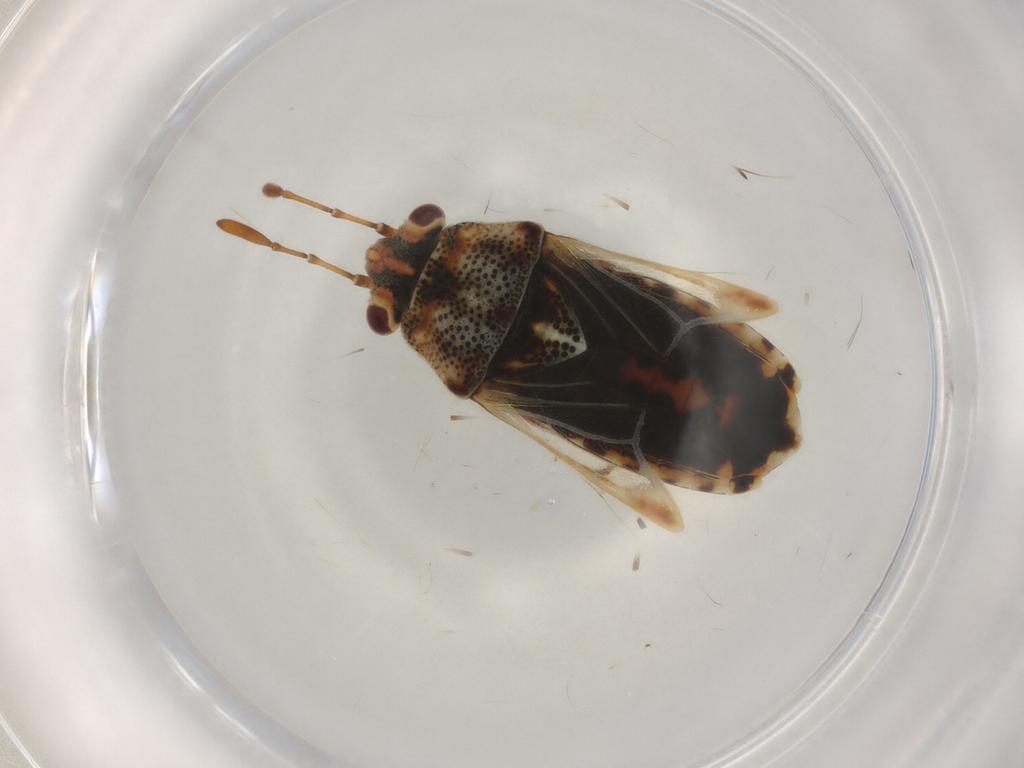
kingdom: Animalia
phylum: Arthropoda
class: Insecta
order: Hemiptera
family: Lygaeidae
